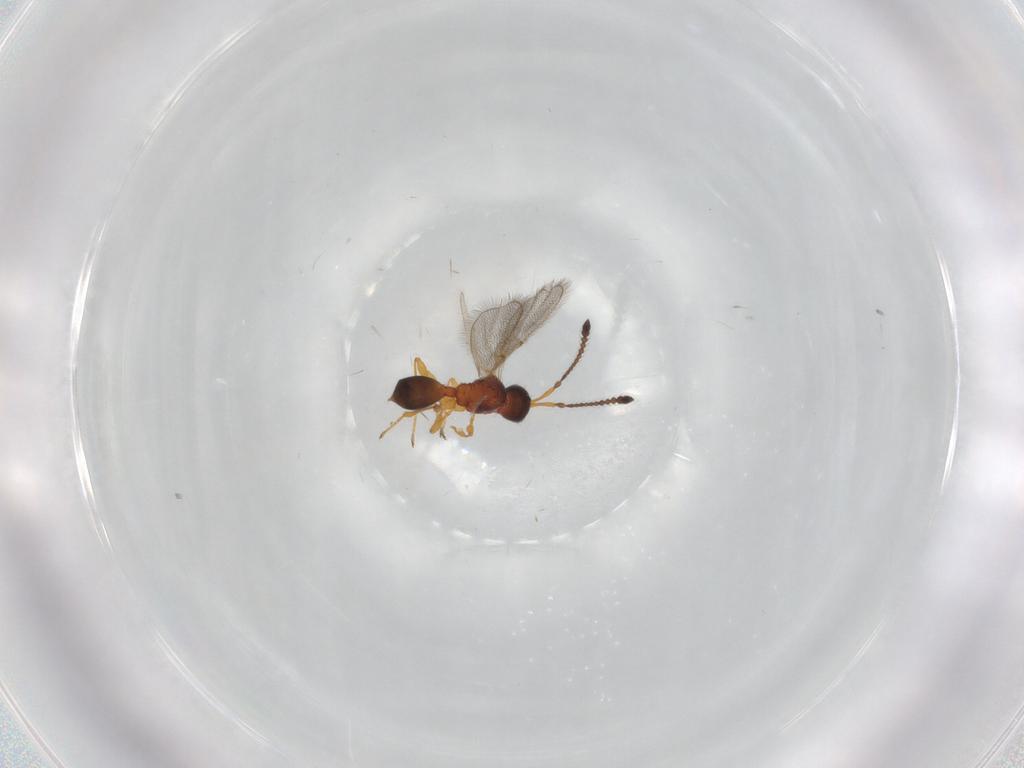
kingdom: Animalia
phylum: Arthropoda
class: Insecta
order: Hymenoptera
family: Diapriidae
